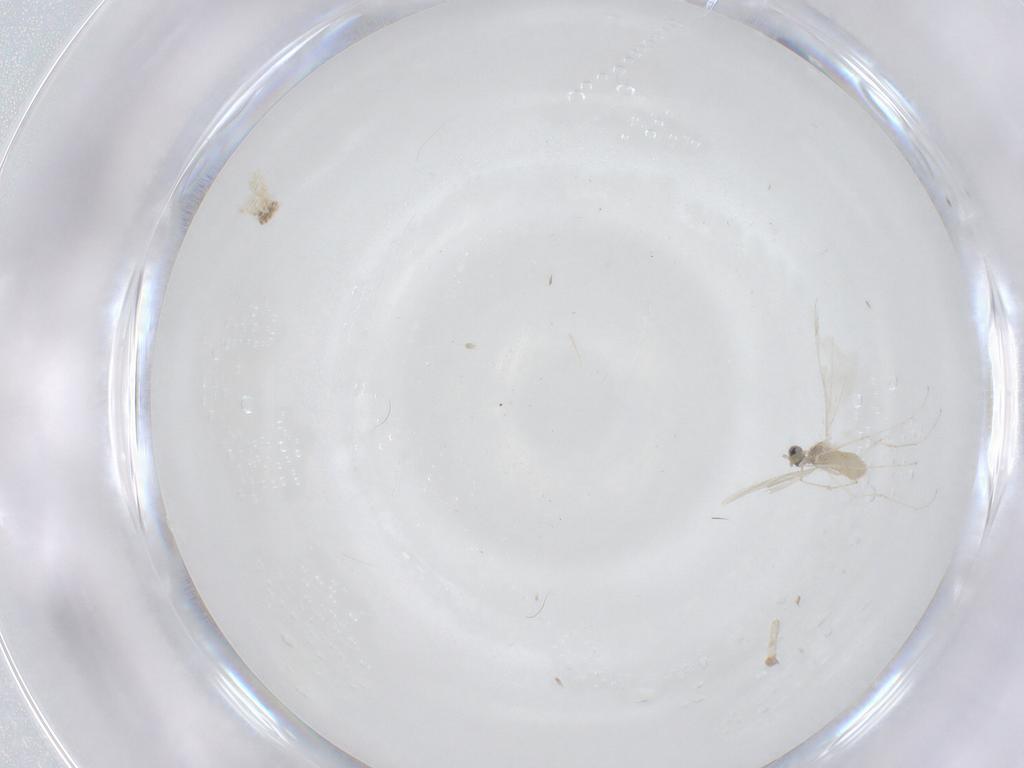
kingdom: Animalia
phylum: Arthropoda
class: Insecta
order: Diptera
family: Cecidomyiidae
